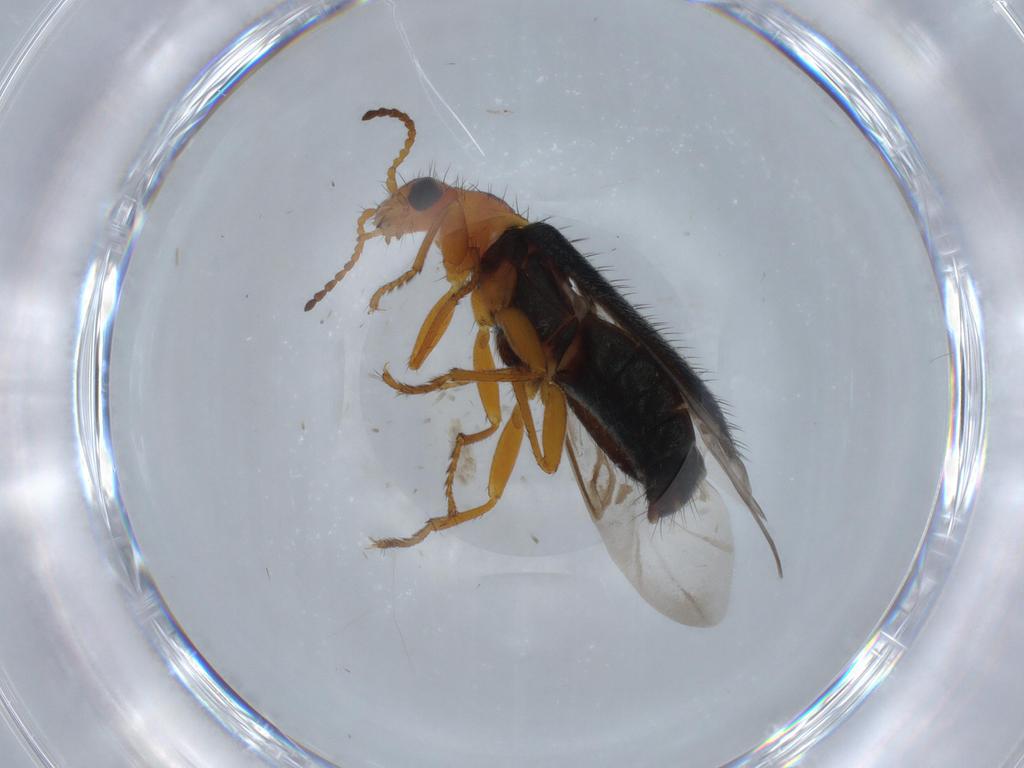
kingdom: Animalia
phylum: Arthropoda
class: Insecta
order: Coleoptera
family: Melyridae
